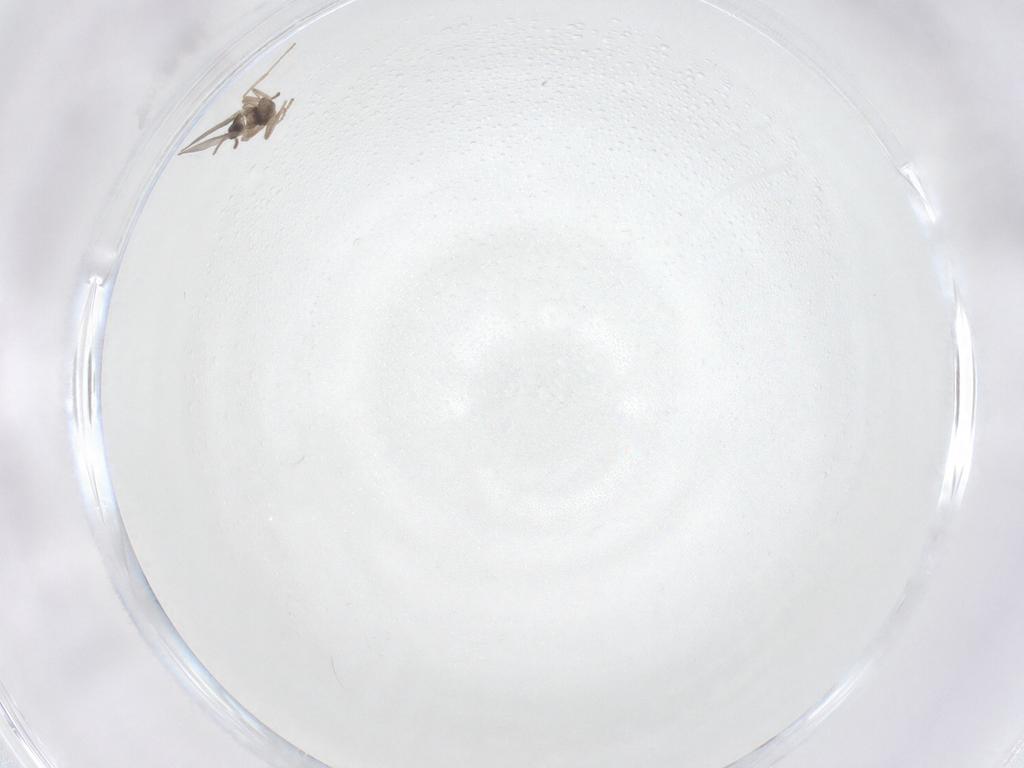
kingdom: Animalia
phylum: Arthropoda
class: Insecta
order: Diptera
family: Cecidomyiidae
